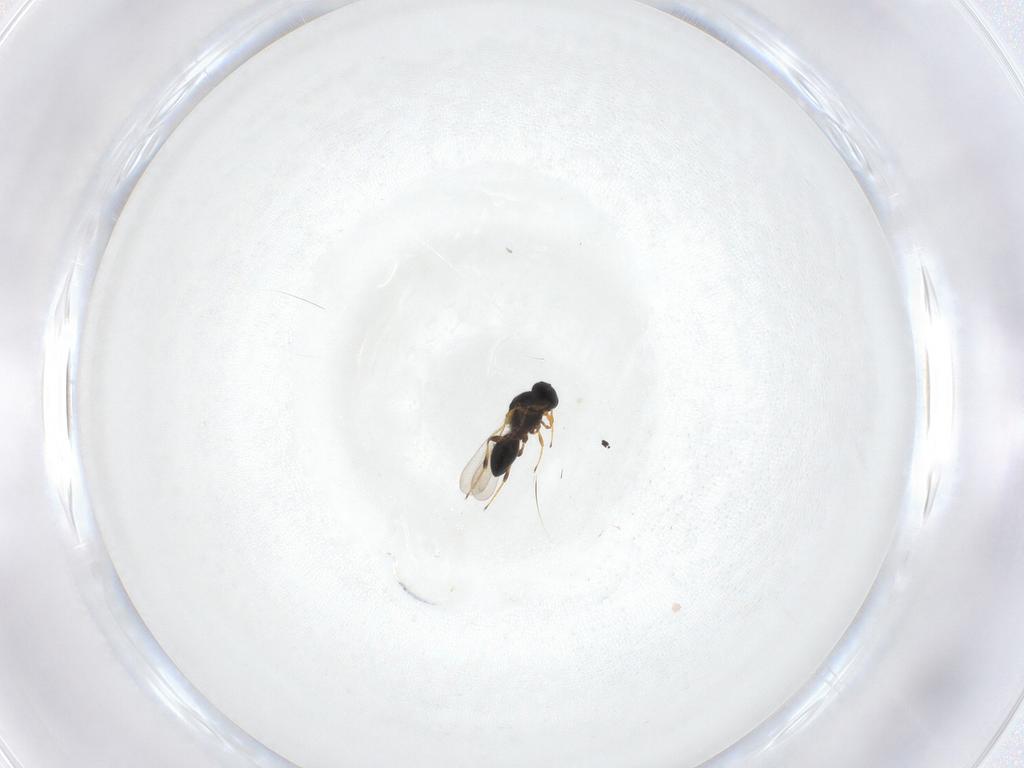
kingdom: Animalia
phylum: Arthropoda
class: Insecta
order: Hymenoptera
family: Platygastridae
